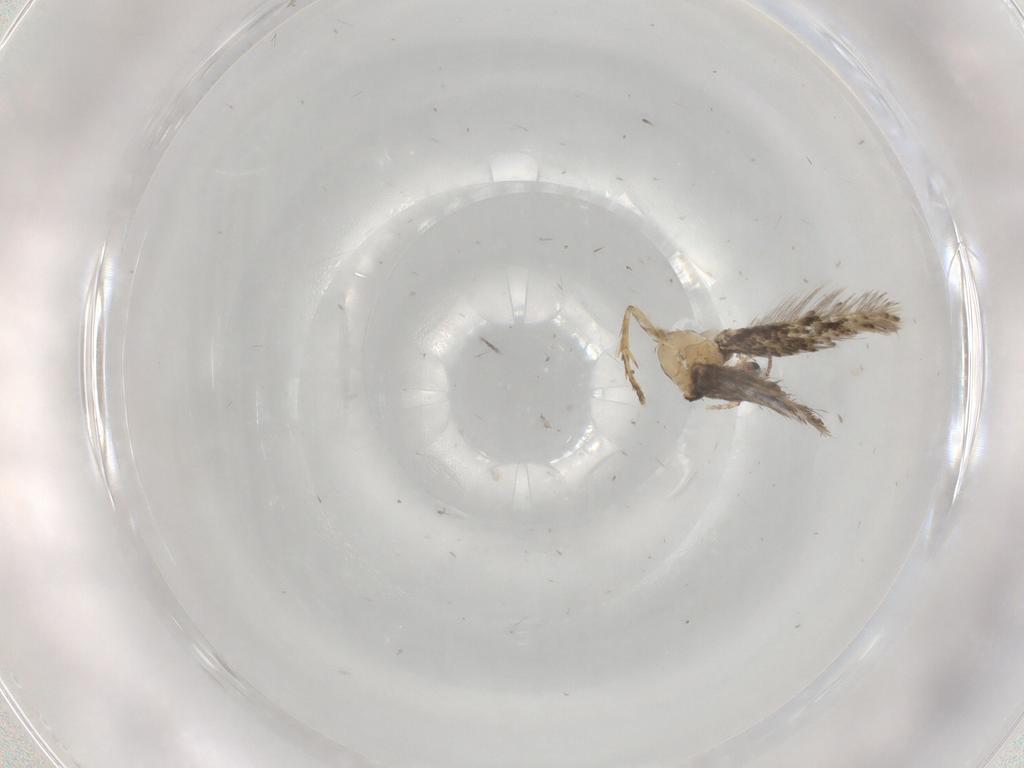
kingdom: Animalia
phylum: Arthropoda
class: Insecta
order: Lepidoptera
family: Nepticulidae
